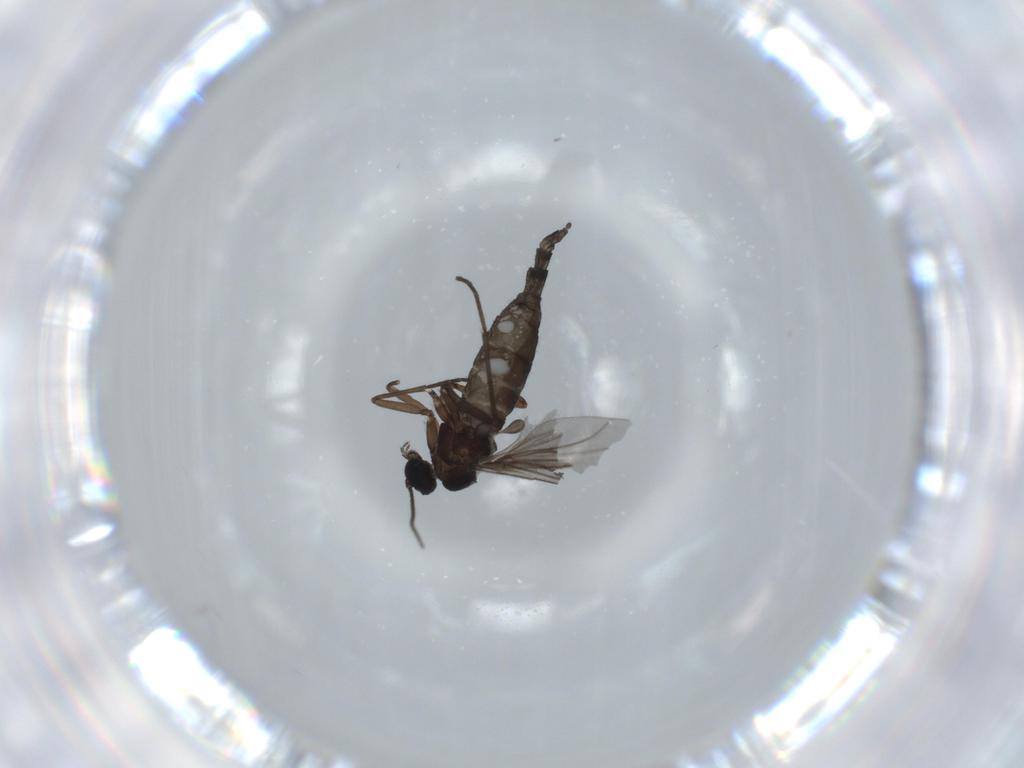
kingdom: Animalia
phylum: Arthropoda
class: Insecta
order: Diptera
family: Sciaridae
